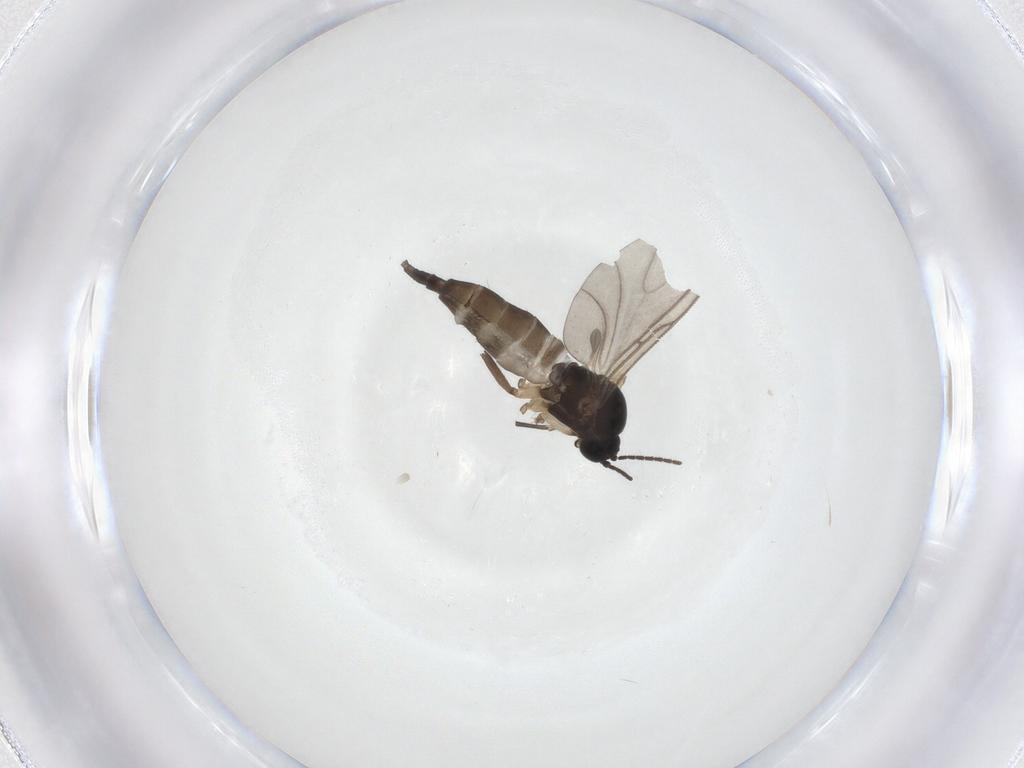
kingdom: Animalia
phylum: Arthropoda
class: Insecta
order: Diptera
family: Sciaridae
